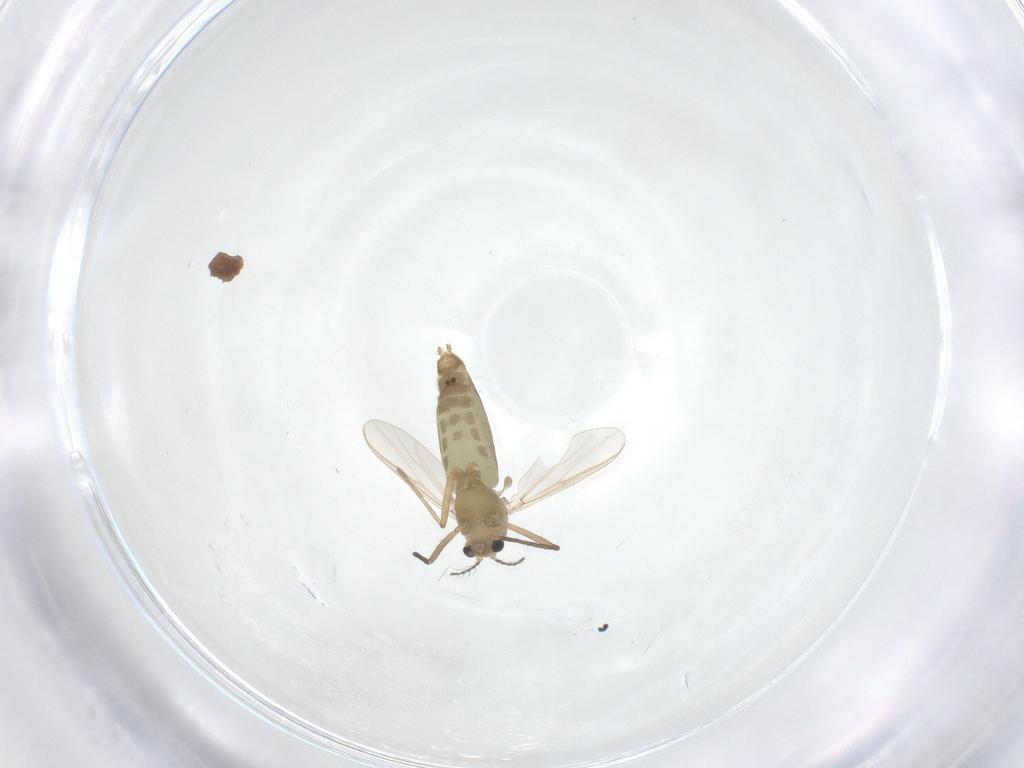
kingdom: Animalia
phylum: Arthropoda
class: Insecta
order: Diptera
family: Chironomidae
